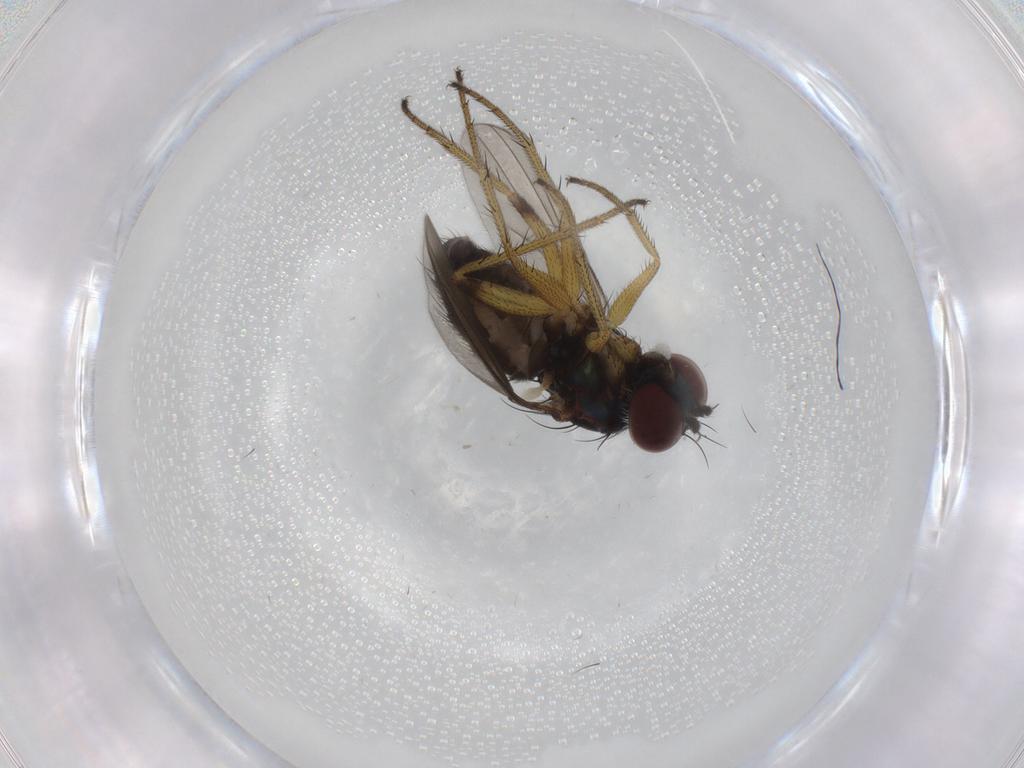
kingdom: Animalia
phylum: Arthropoda
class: Insecta
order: Diptera
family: Dolichopodidae
